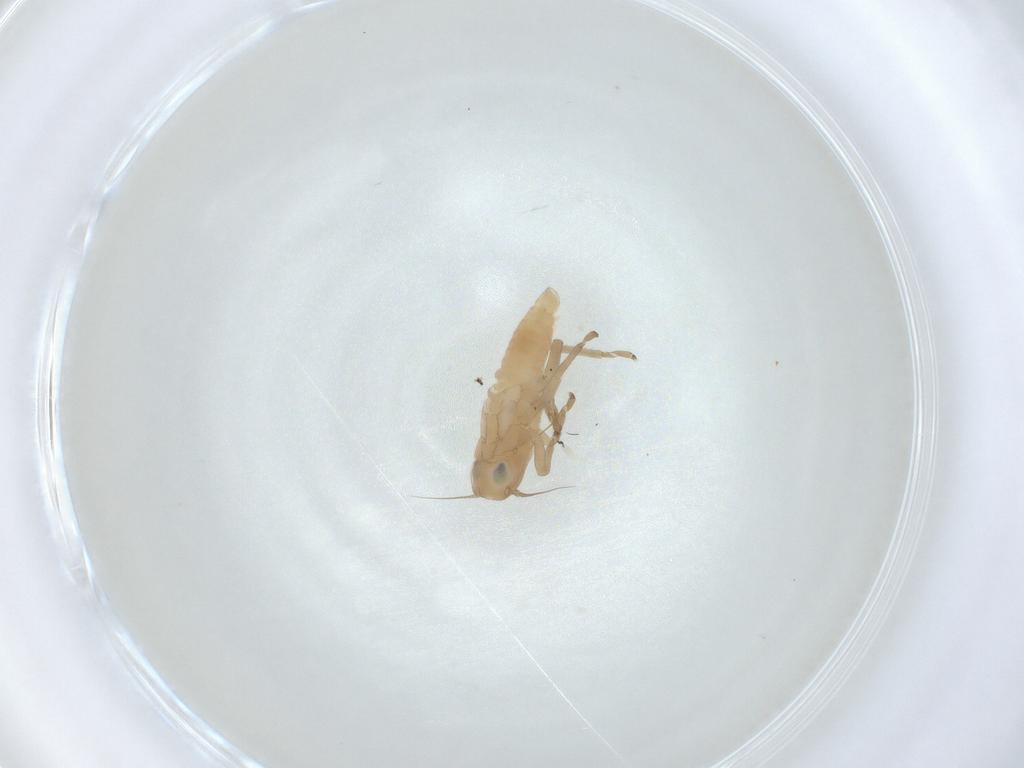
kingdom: Animalia
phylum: Arthropoda
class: Insecta
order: Hemiptera
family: Cicadellidae
